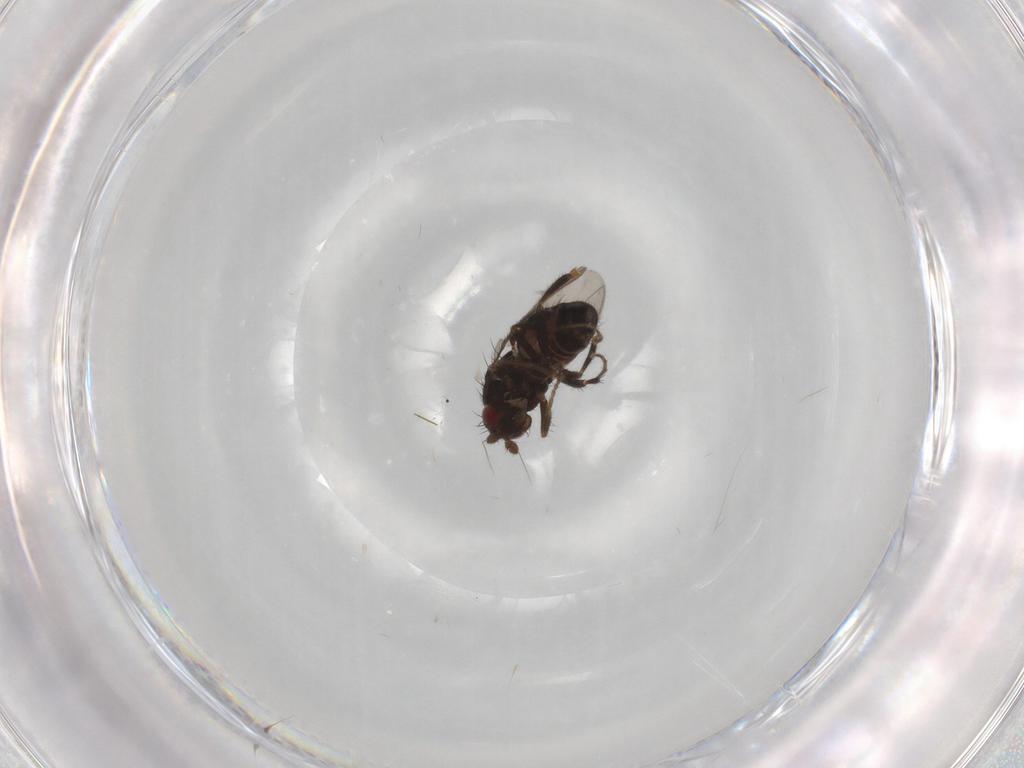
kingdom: Animalia
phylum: Arthropoda
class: Insecta
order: Diptera
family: Sphaeroceridae
